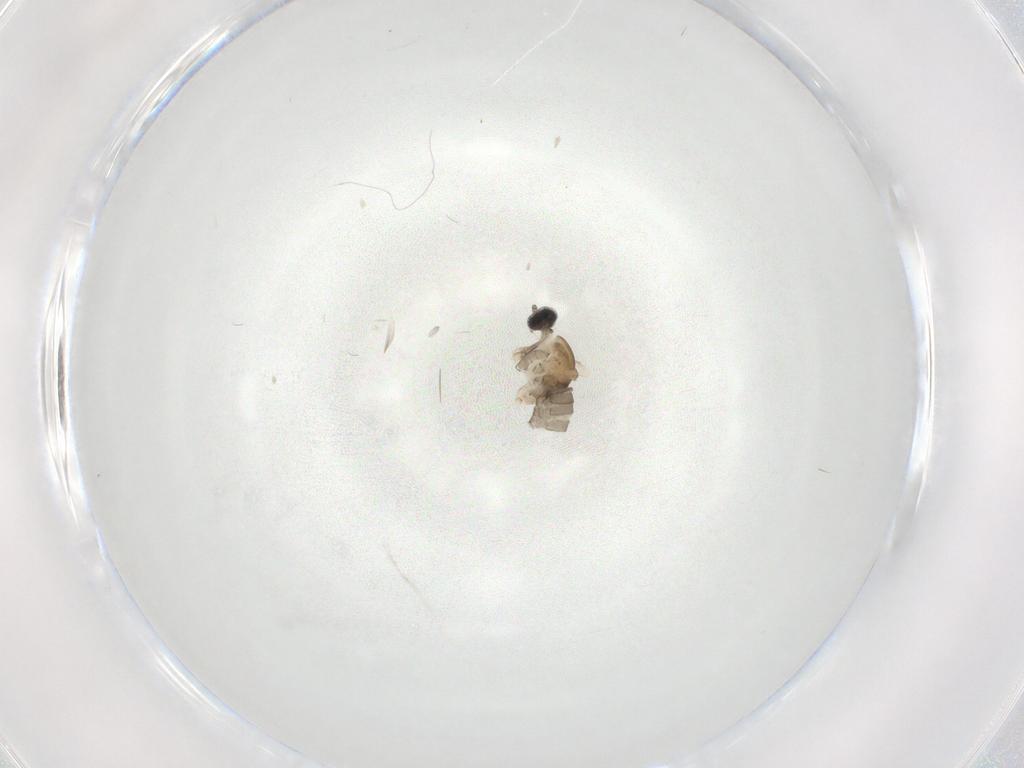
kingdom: Animalia
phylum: Arthropoda
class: Insecta
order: Diptera
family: Cecidomyiidae
